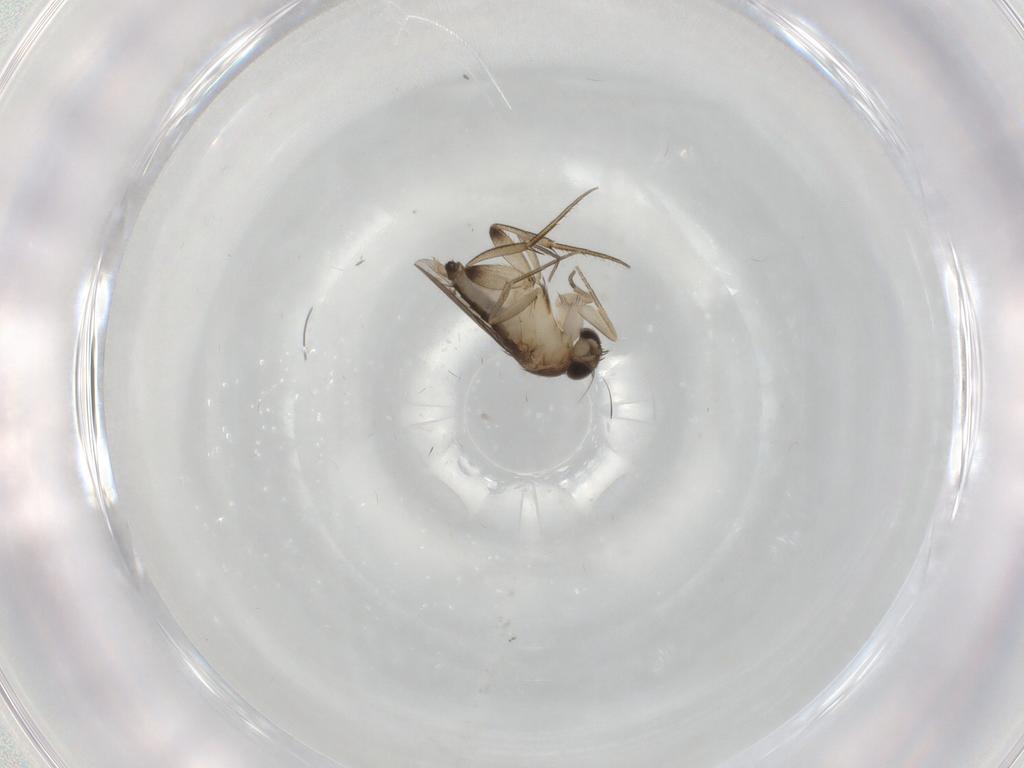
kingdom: Animalia
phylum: Arthropoda
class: Insecta
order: Diptera
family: Phoridae
